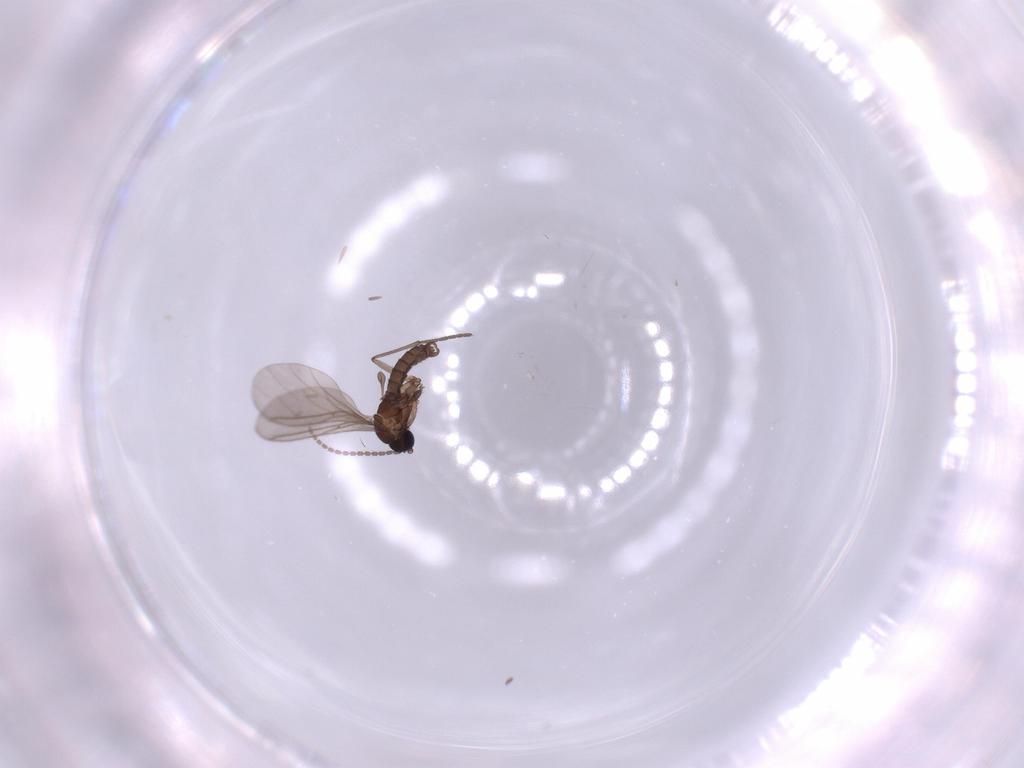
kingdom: Animalia
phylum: Arthropoda
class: Insecta
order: Diptera
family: Sciaridae
